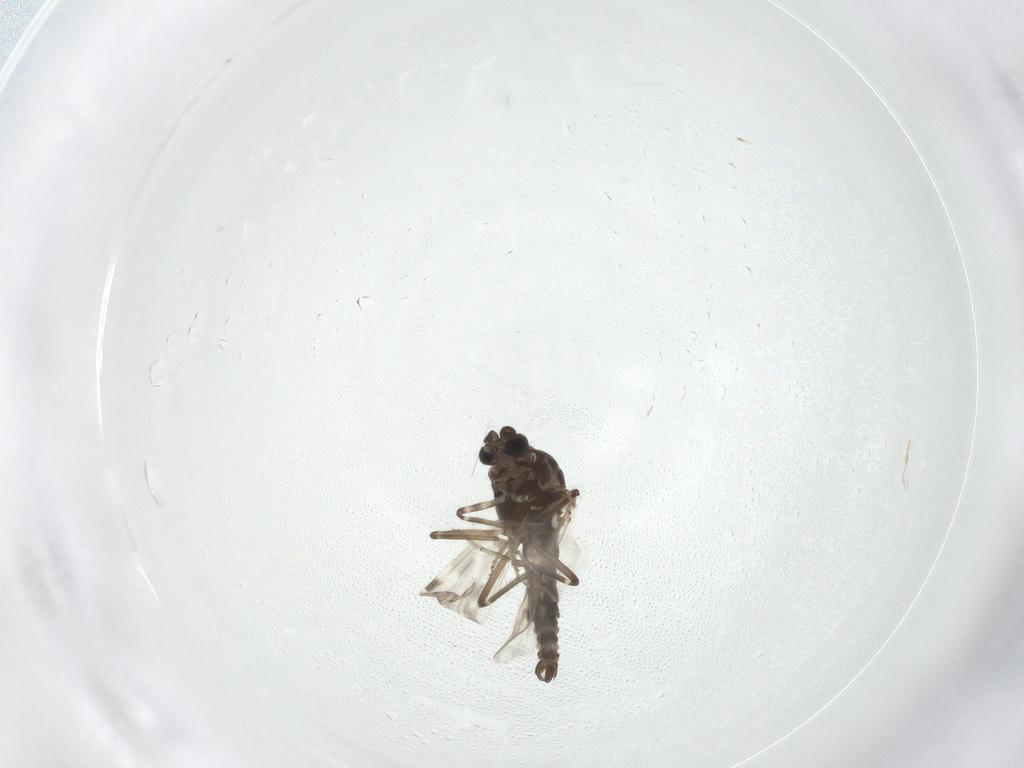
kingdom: Animalia
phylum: Arthropoda
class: Insecta
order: Diptera
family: Ceratopogonidae
